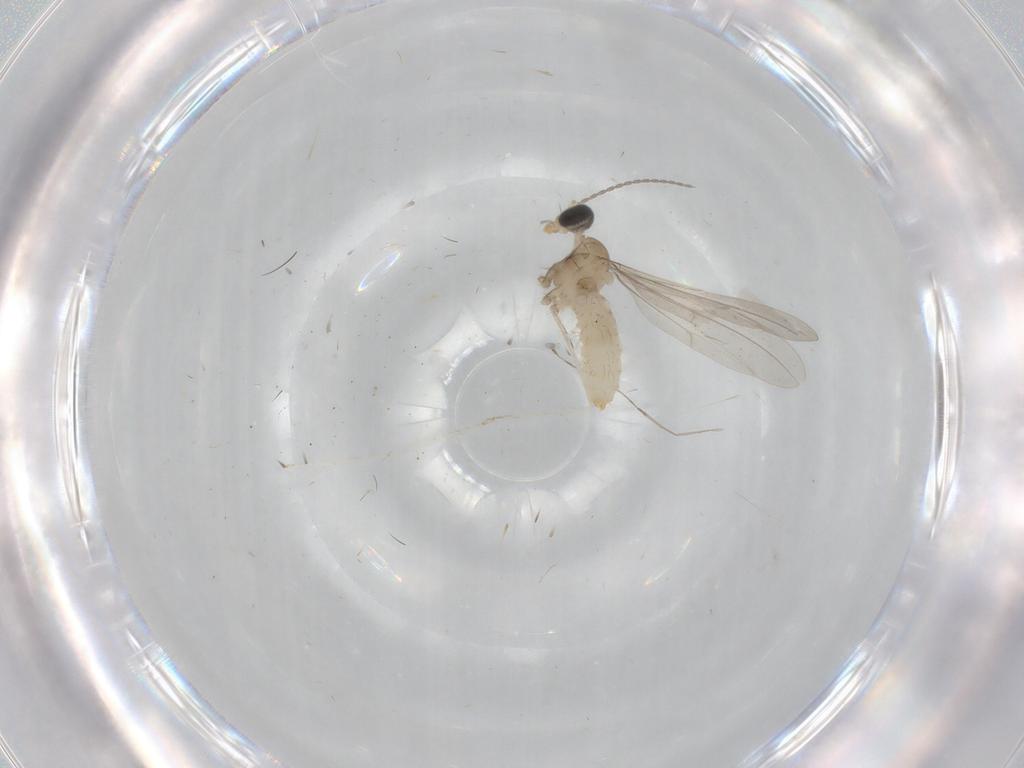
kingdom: Animalia
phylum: Arthropoda
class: Insecta
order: Diptera
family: Cecidomyiidae
